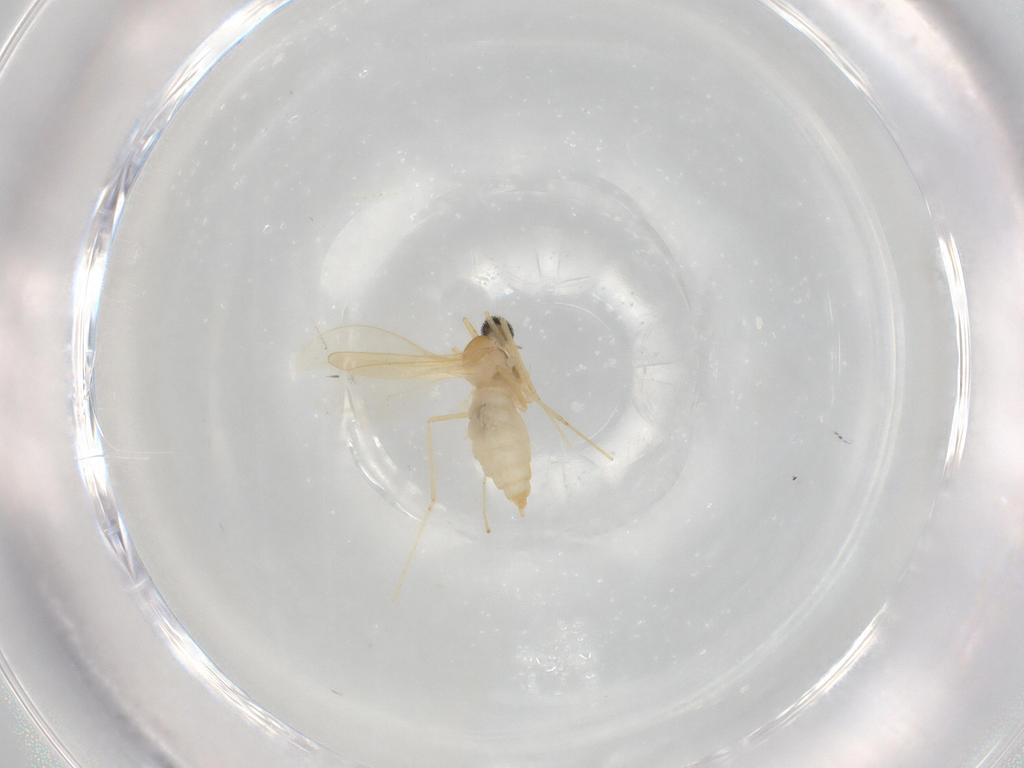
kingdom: Animalia
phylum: Arthropoda
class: Insecta
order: Diptera
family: Cecidomyiidae
